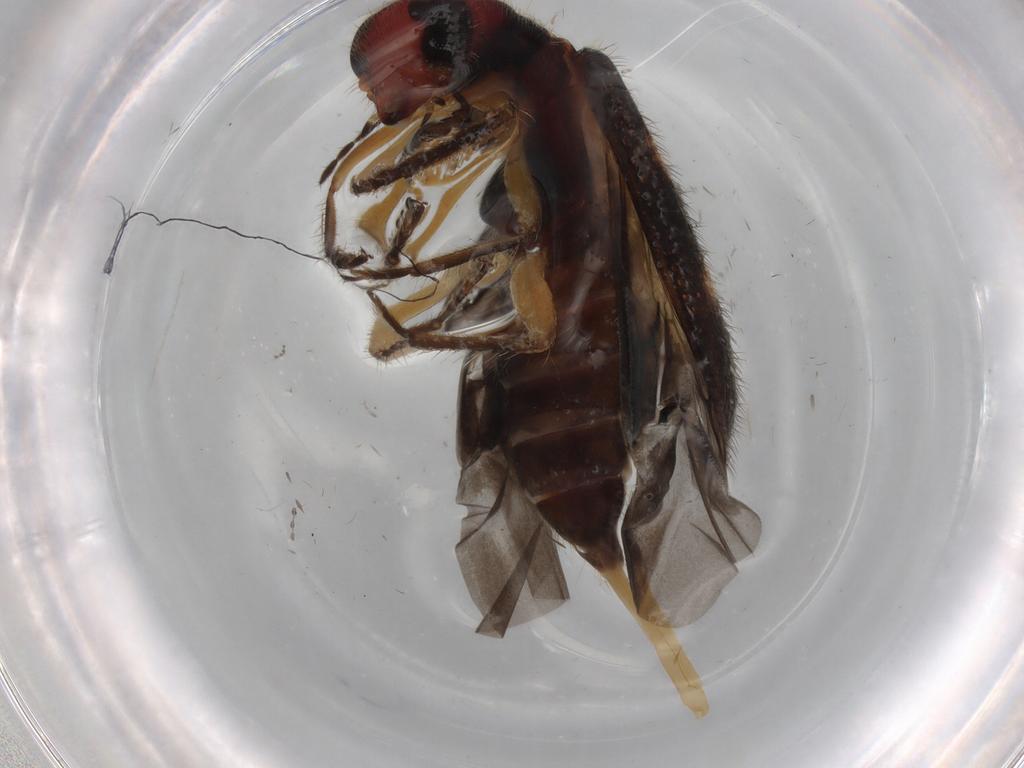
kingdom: Animalia
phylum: Arthropoda
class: Insecta
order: Coleoptera
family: Cleridae
